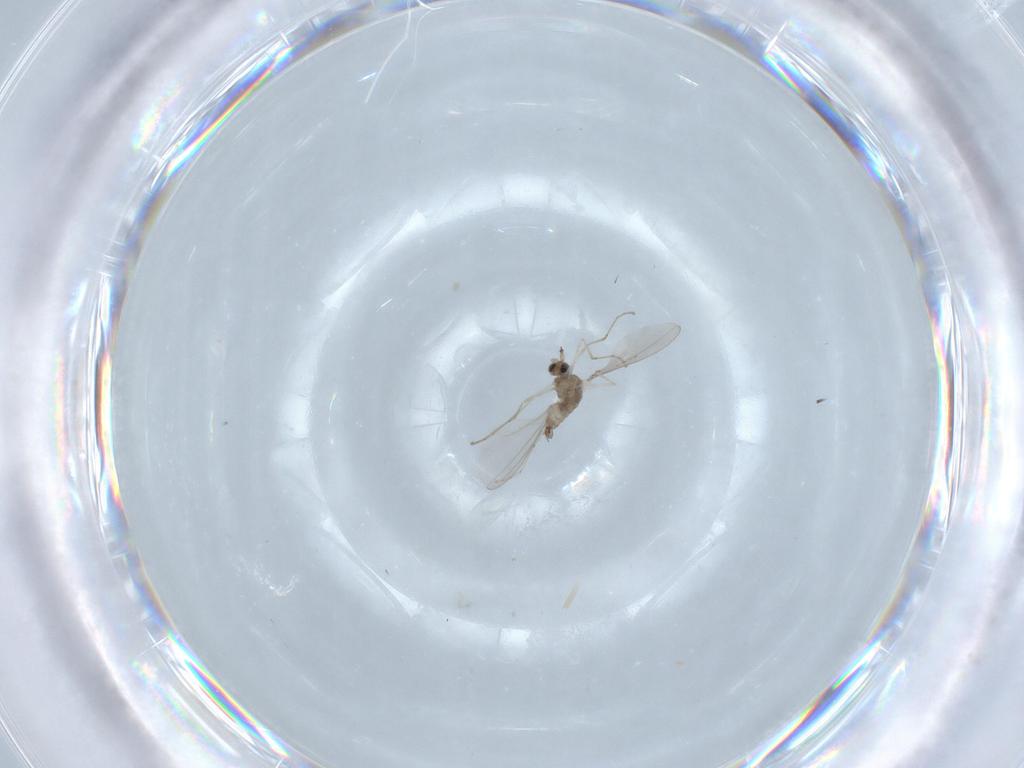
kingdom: Animalia
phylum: Arthropoda
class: Insecta
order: Diptera
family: Cecidomyiidae
